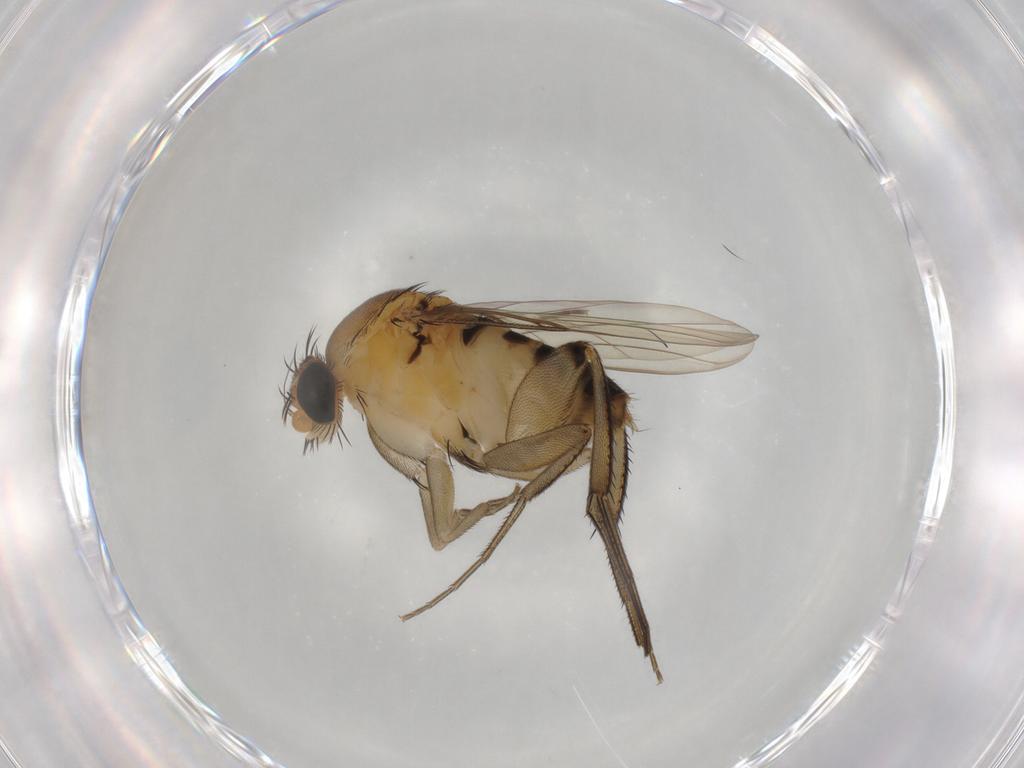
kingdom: Animalia
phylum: Arthropoda
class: Insecta
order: Diptera
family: Phoridae
